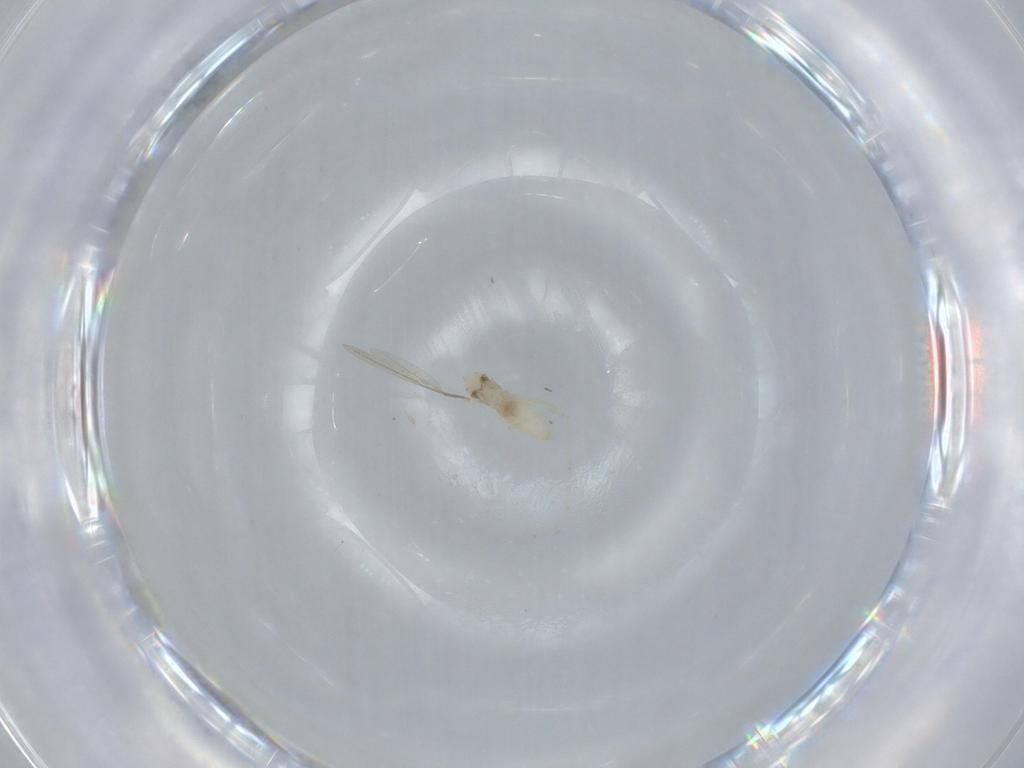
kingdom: Animalia
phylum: Arthropoda
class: Insecta
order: Diptera
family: Cecidomyiidae
